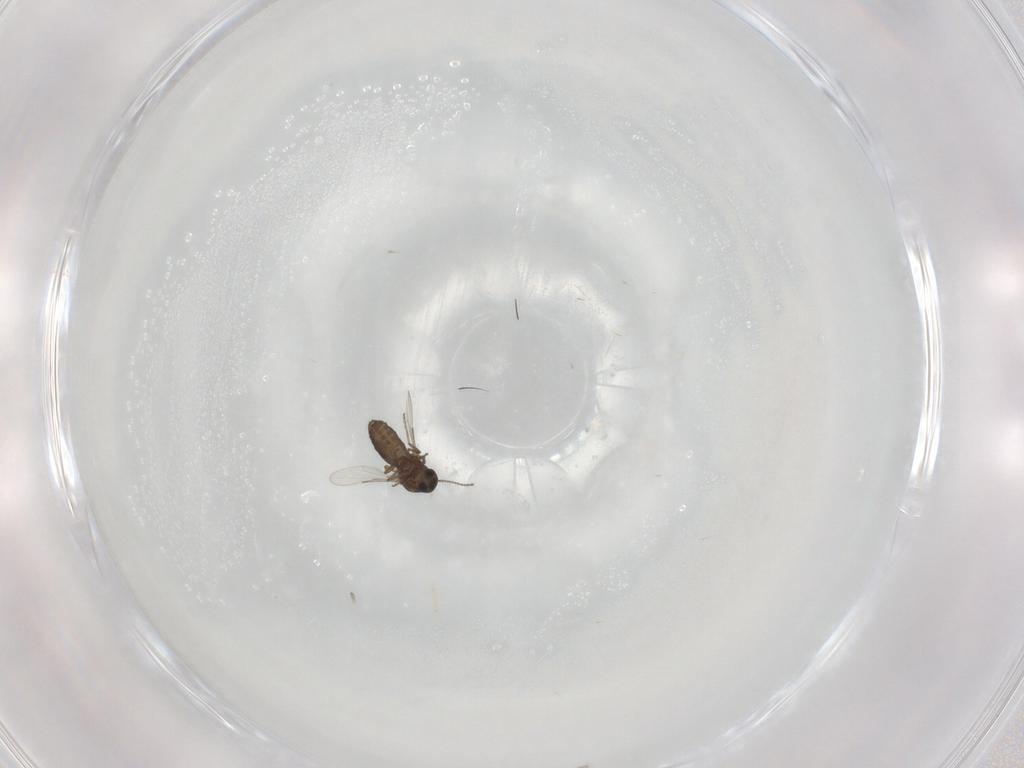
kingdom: Animalia
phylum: Arthropoda
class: Insecta
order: Diptera
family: Ceratopogonidae
